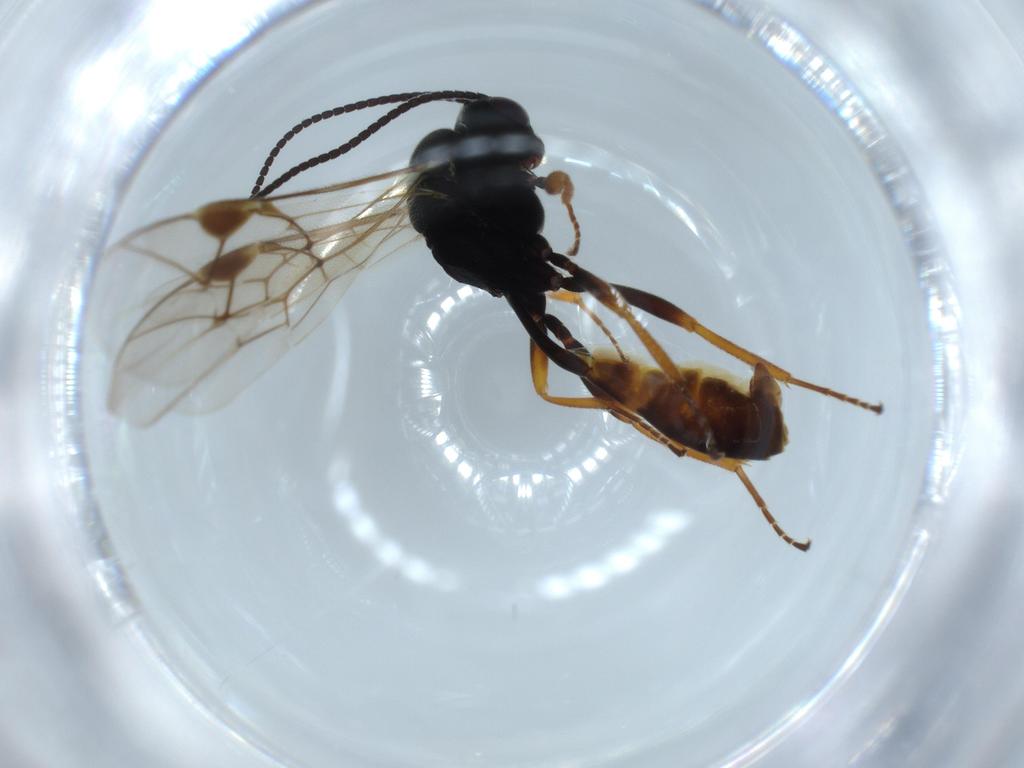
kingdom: Animalia
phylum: Arthropoda
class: Insecta
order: Hymenoptera
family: Ichneumonidae
